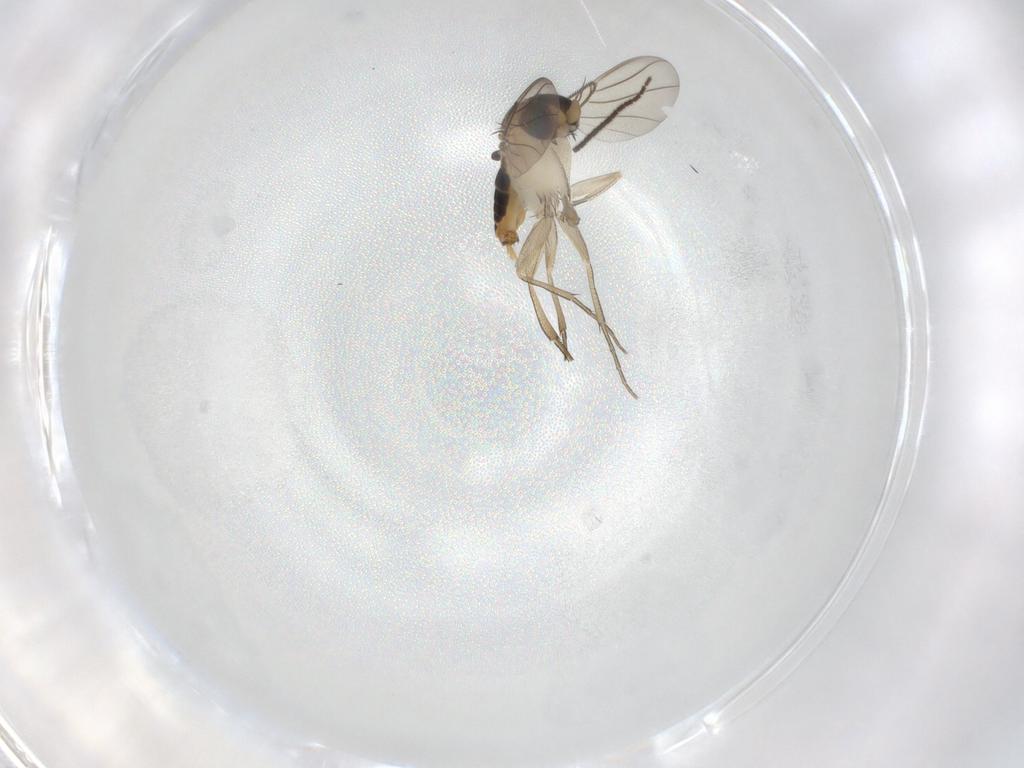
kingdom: Animalia
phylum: Arthropoda
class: Insecta
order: Diptera
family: Phoridae
